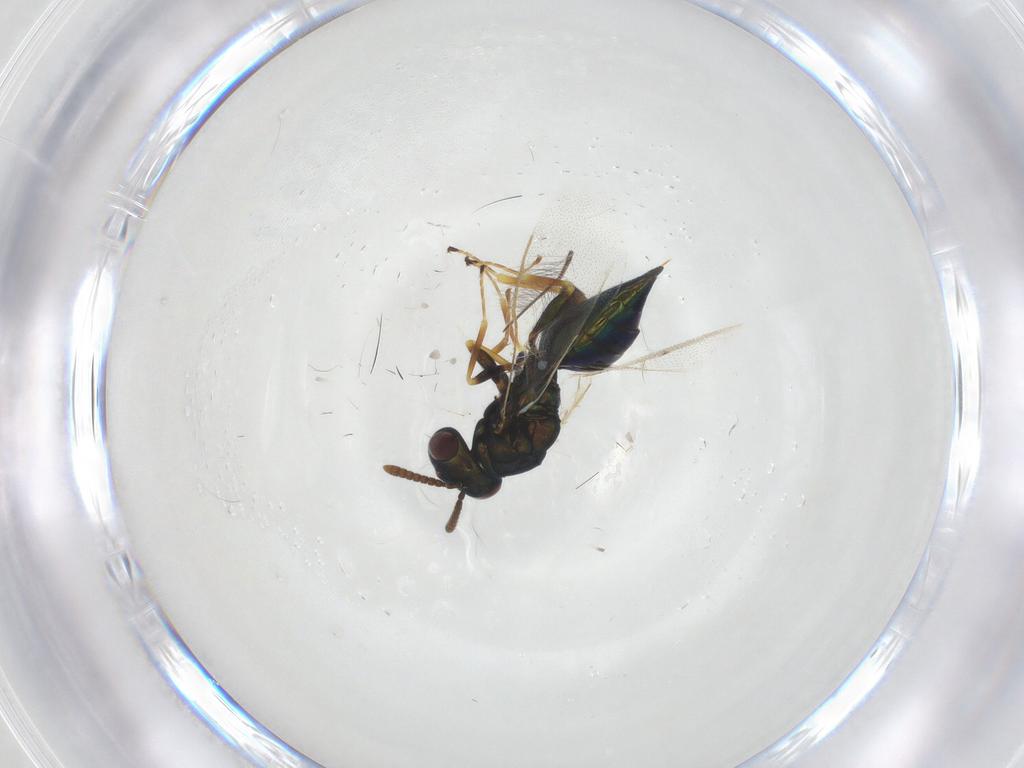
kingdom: Animalia
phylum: Arthropoda
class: Insecta
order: Hymenoptera
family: Pteromalidae
